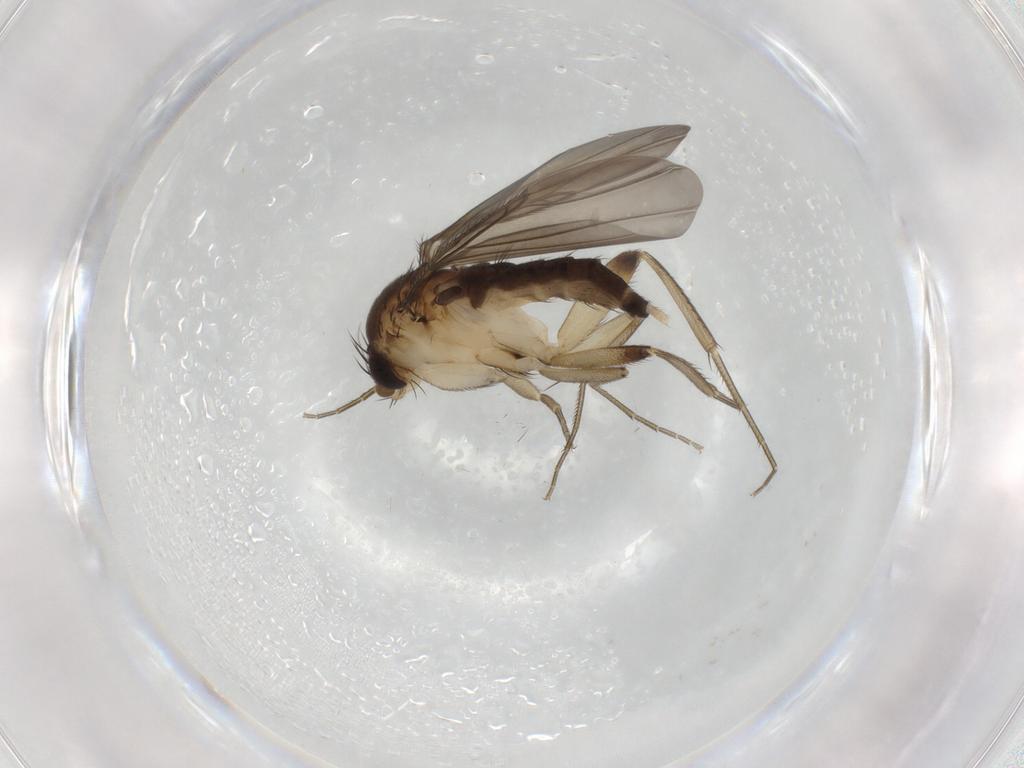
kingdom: Animalia
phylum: Arthropoda
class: Insecta
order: Diptera
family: Phoridae
